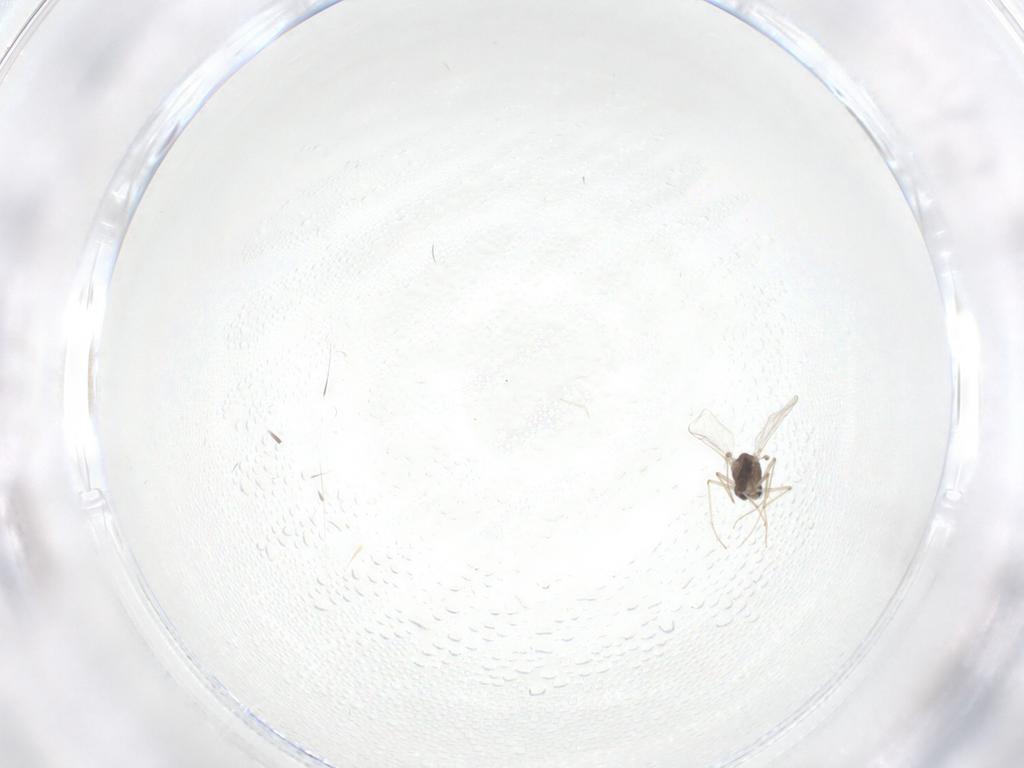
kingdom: Animalia
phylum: Arthropoda
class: Insecta
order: Diptera
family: Chironomidae
